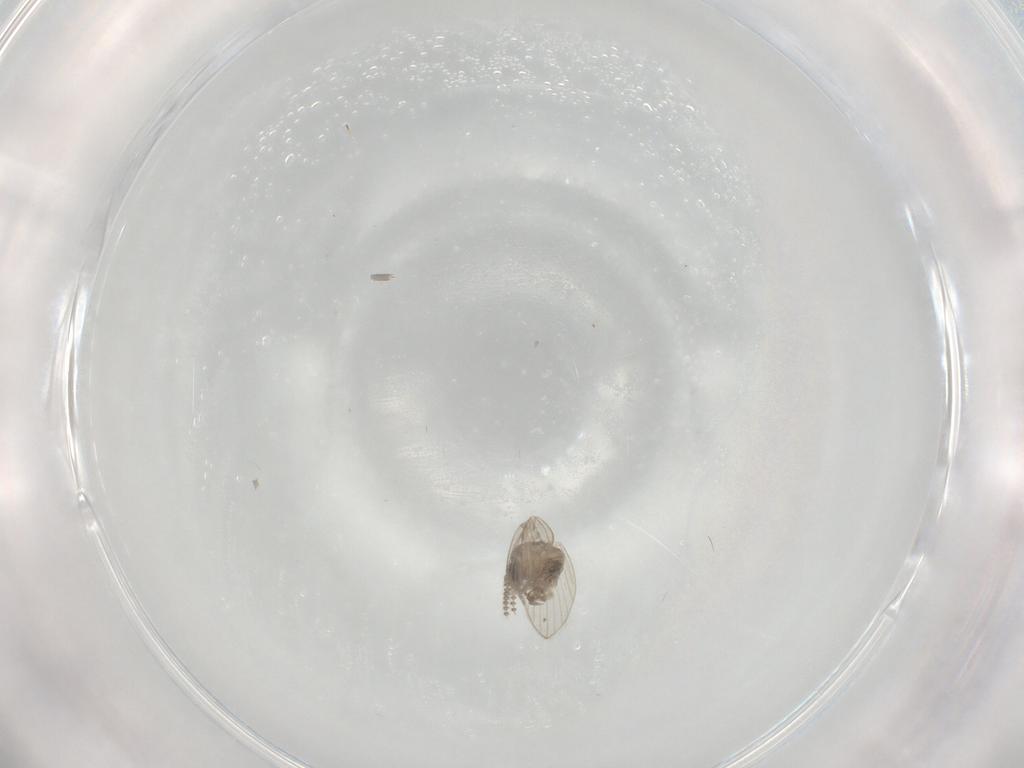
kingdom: Animalia
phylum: Arthropoda
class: Insecta
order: Diptera
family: Psychodidae
